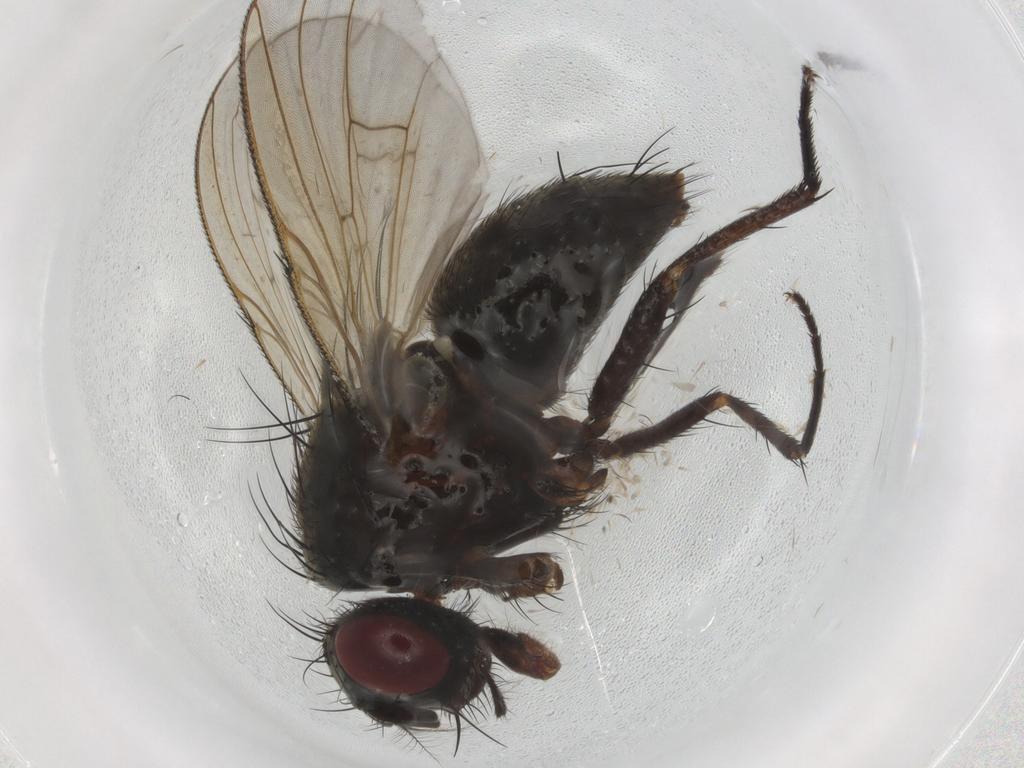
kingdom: Animalia
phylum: Arthropoda
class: Insecta
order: Diptera
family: Muscidae
